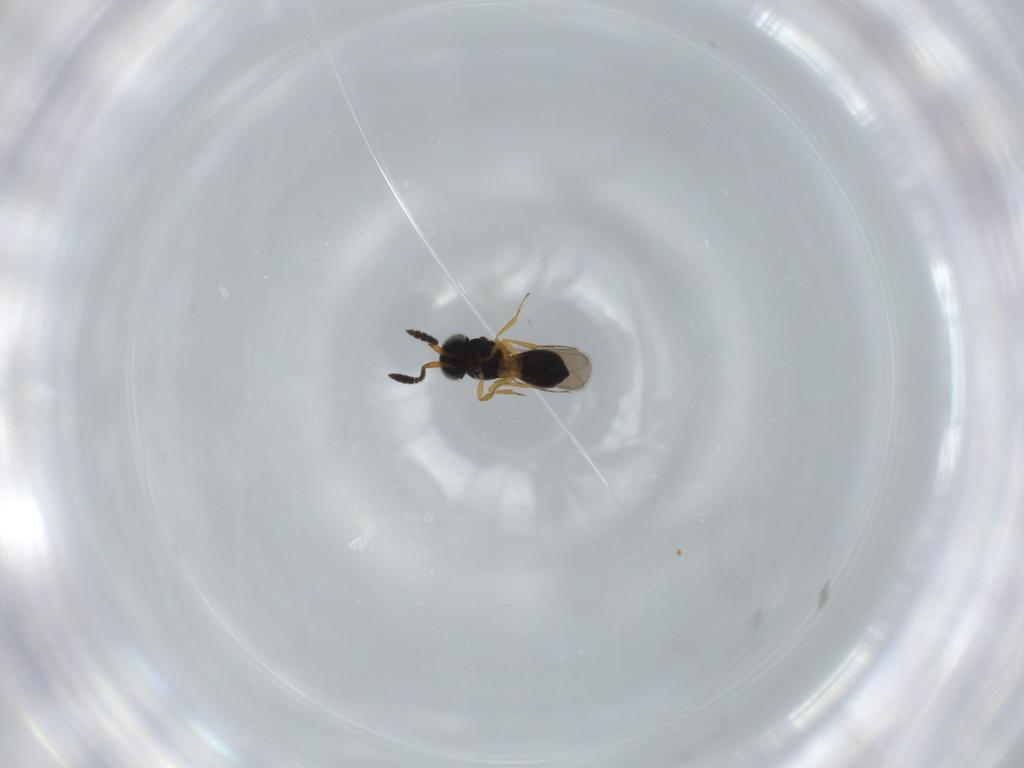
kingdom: Animalia
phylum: Arthropoda
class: Insecta
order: Hymenoptera
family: Scelionidae
